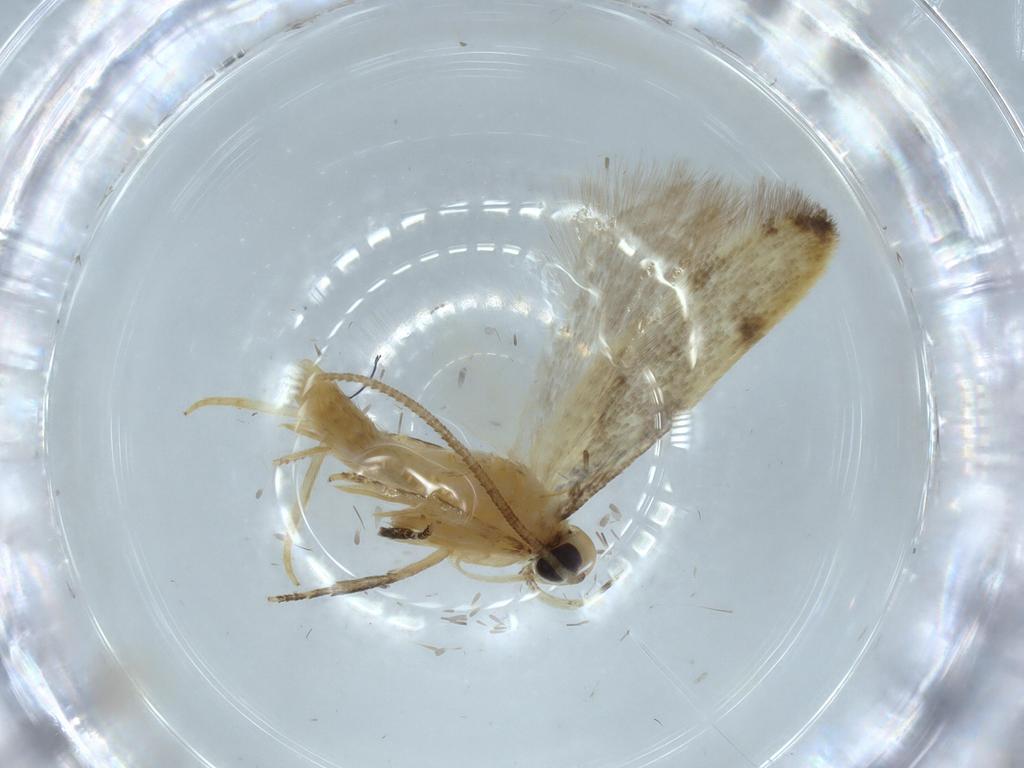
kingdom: Animalia
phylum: Arthropoda
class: Insecta
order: Lepidoptera
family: Autostichidae
